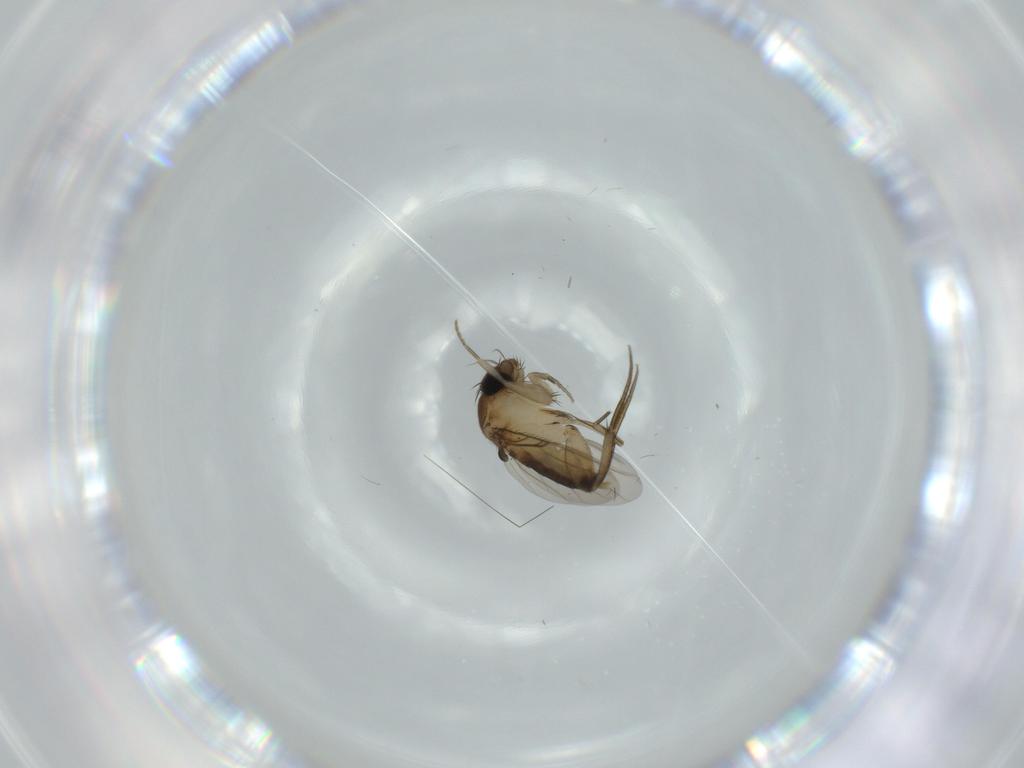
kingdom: Animalia
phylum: Arthropoda
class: Insecta
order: Diptera
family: Phoridae
